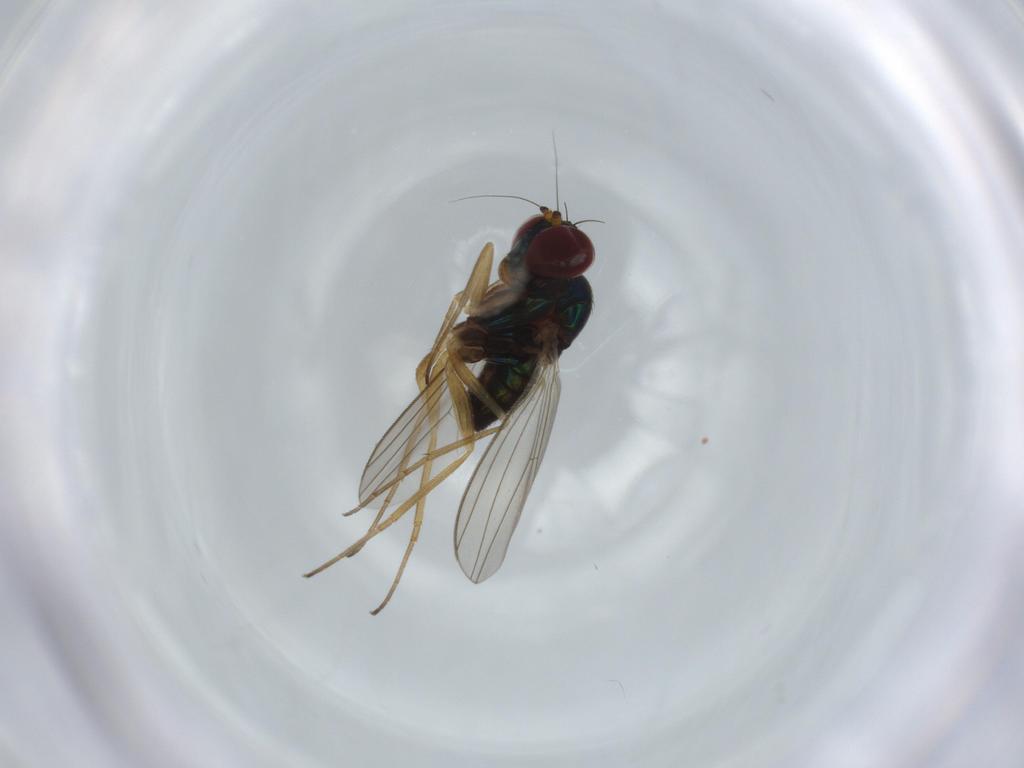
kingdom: Animalia
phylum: Arthropoda
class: Insecta
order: Diptera
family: Dolichopodidae
